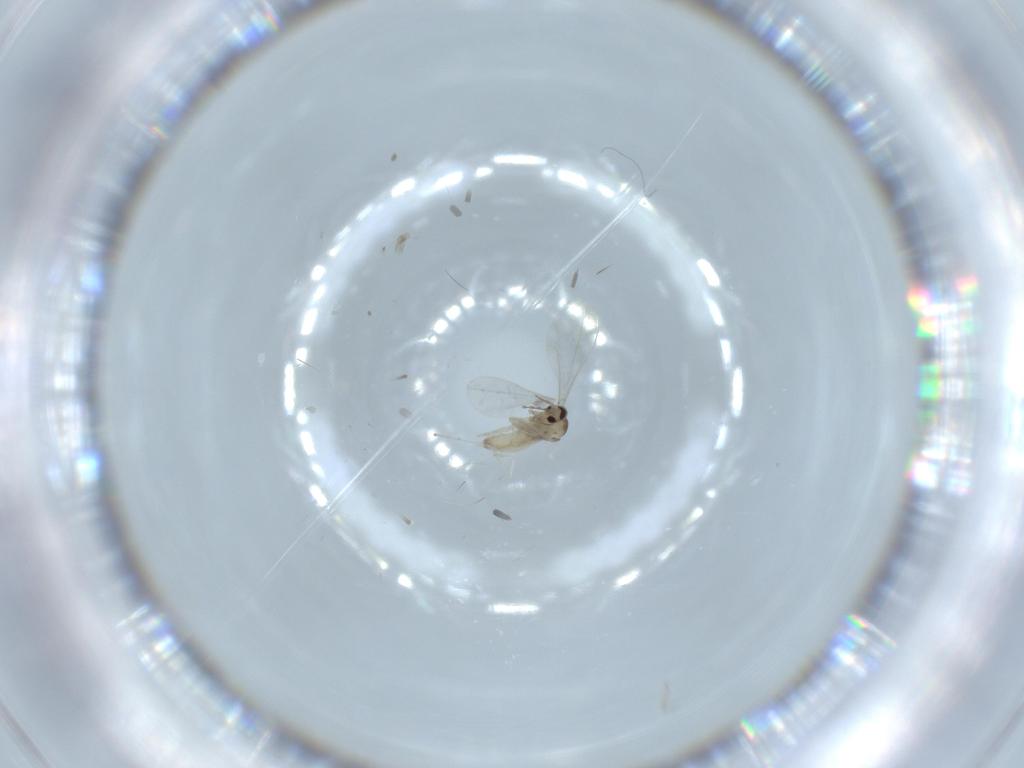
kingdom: Animalia
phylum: Arthropoda
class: Insecta
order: Diptera
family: Cecidomyiidae
